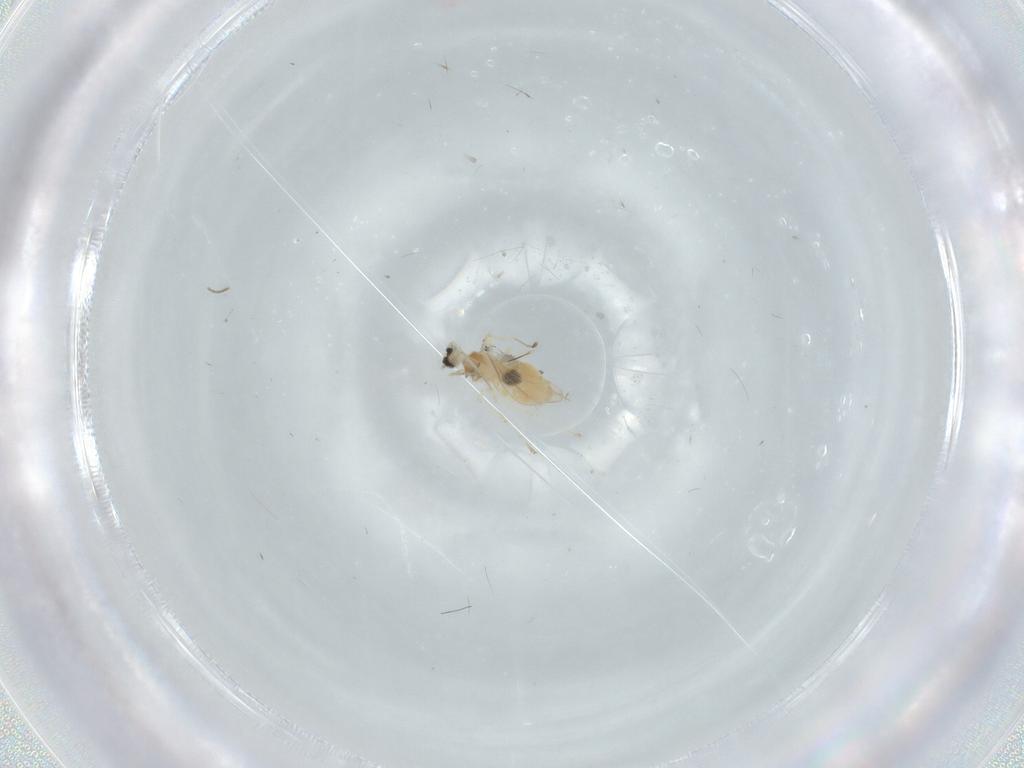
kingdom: Animalia
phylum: Arthropoda
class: Insecta
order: Diptera
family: Cecidomyiidae
